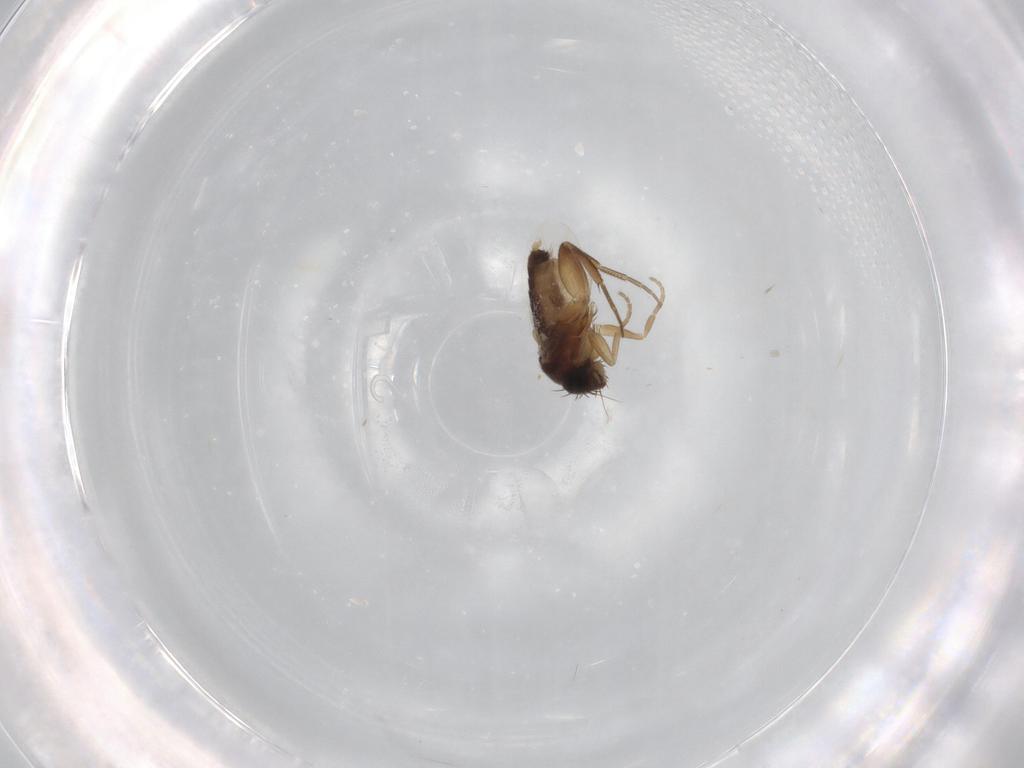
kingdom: Animalia
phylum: Arthropoda
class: Insecta
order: Diptera
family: Phoridae
